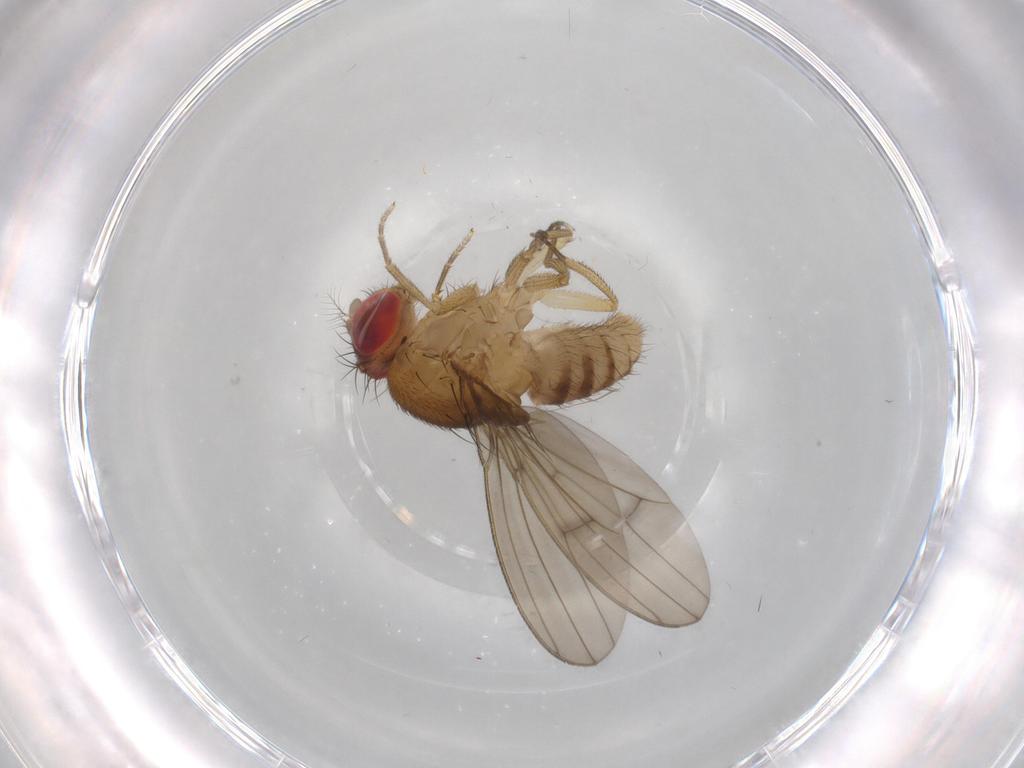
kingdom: Animalia
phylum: Arthropoda
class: Insecta
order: Diptera
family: Drosophilidae
